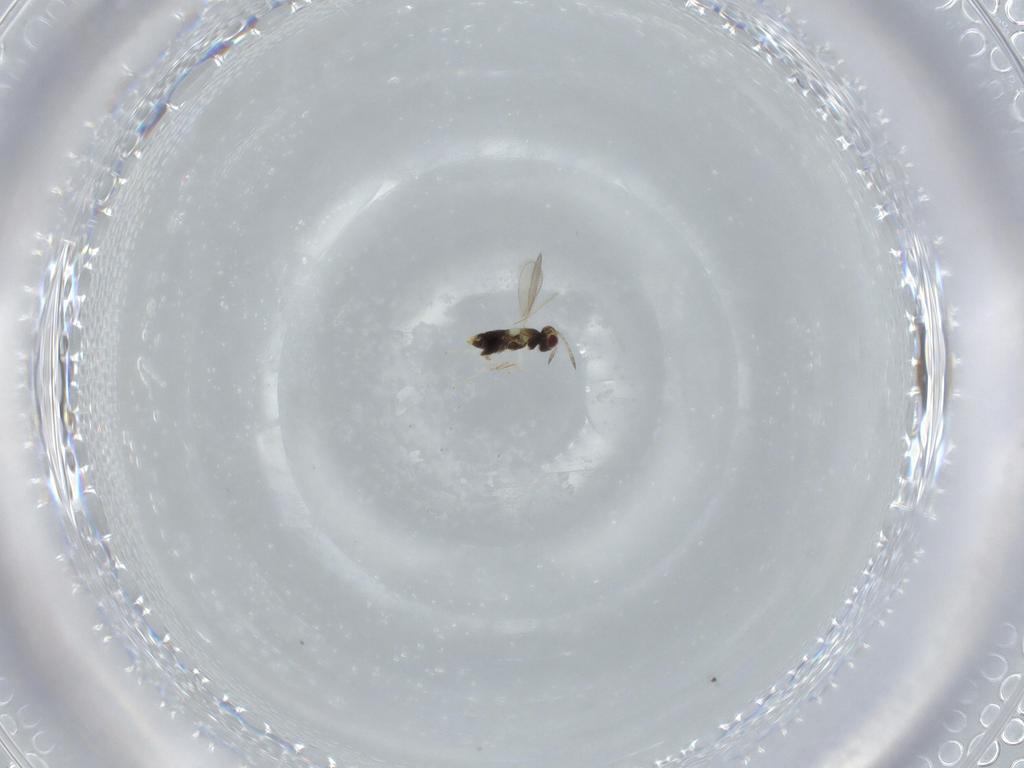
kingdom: Animalia
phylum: Arthropoda
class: Insecta
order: Hymenoptera
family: Aphelinidae
